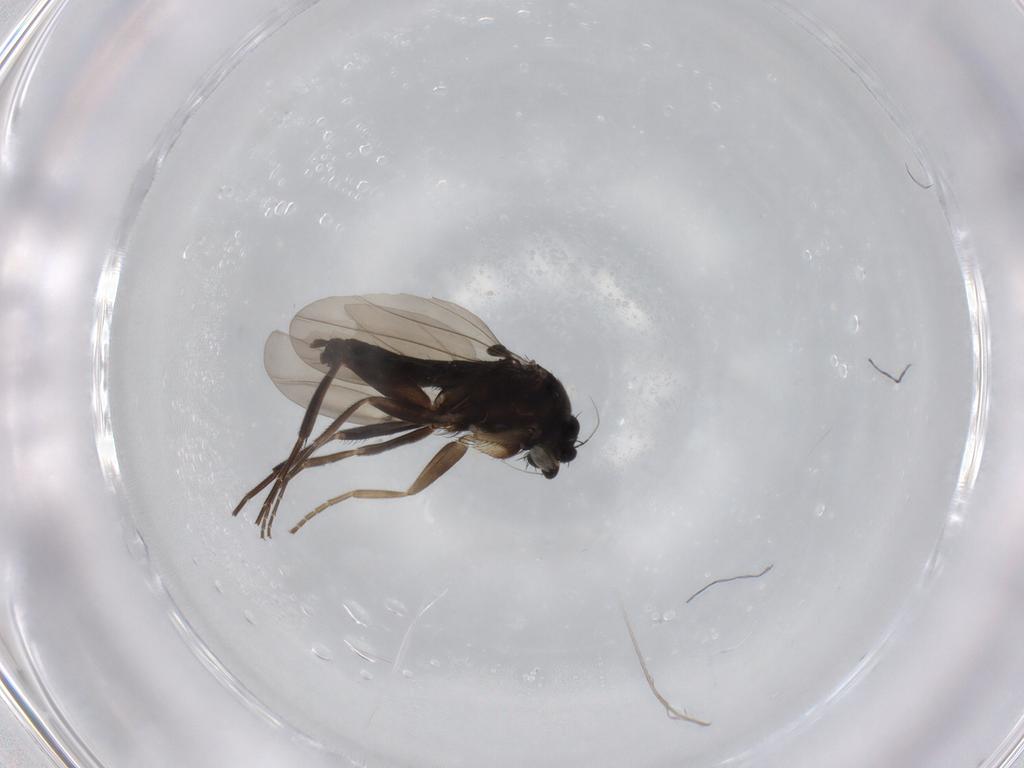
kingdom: Animalia
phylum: Arthropoda
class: Insecta
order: Diptera
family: Phoridae
